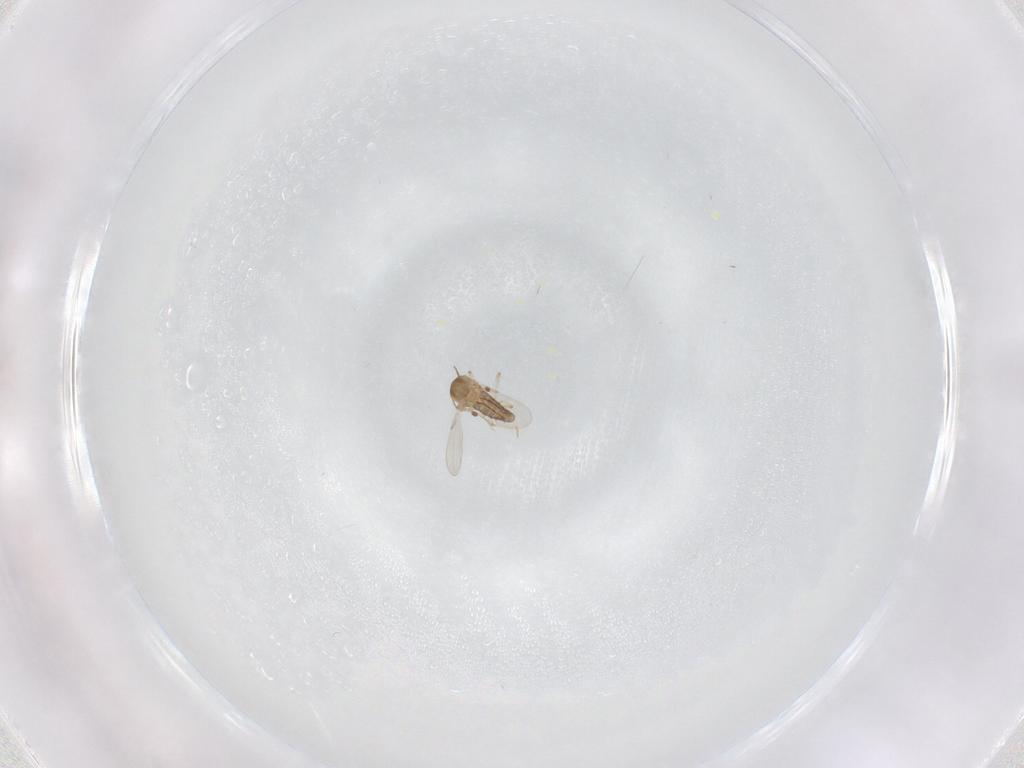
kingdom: Animalia
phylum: Arthropoda
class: Insecta
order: Diptera
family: Ceratopogonidae
